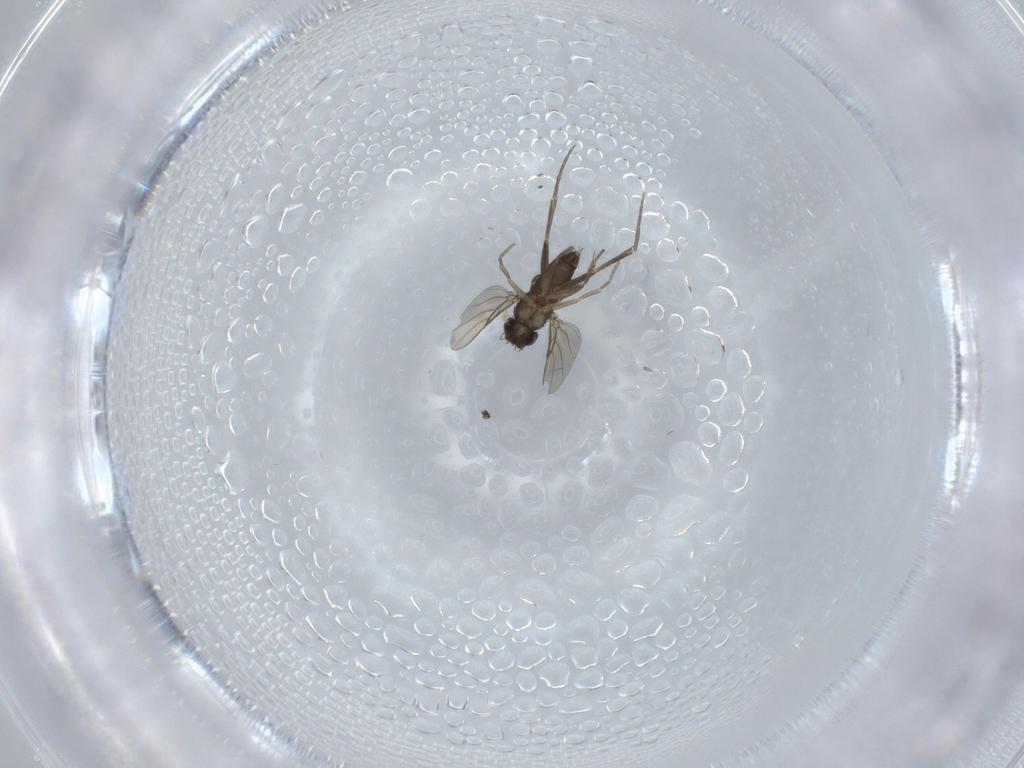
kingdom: Animalia
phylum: Arthropoda
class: Insecta
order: Diptera
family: Phoridae
